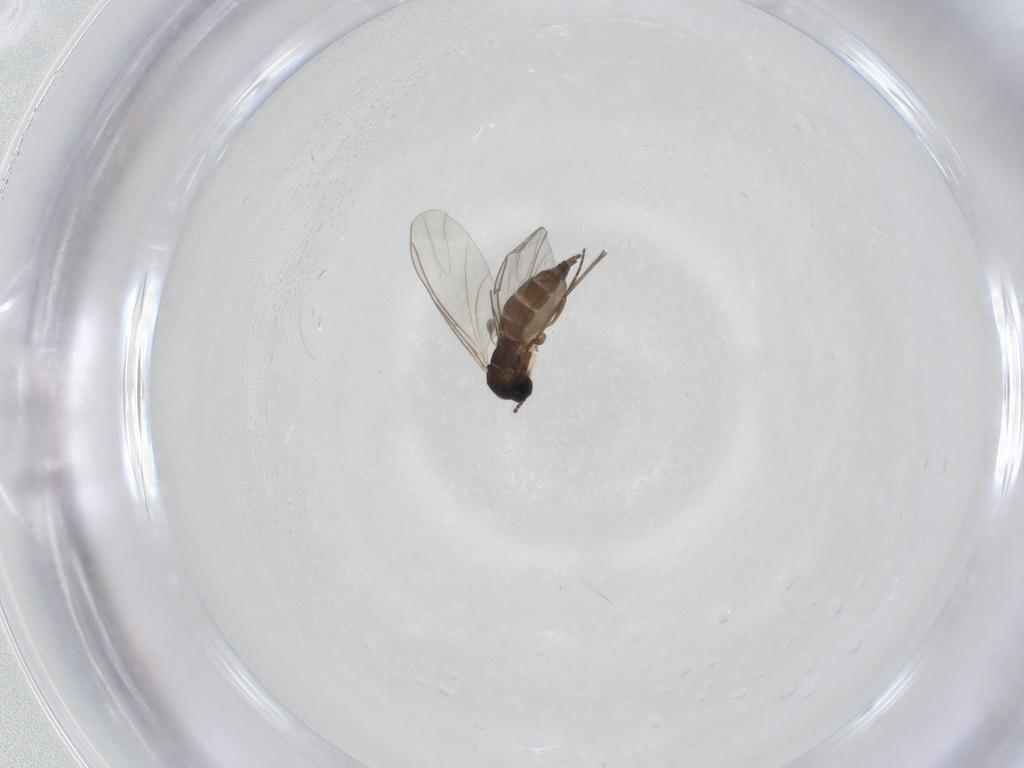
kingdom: Animalia
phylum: Arthropoda
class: Insecta
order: Diptera
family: Sciaridae
